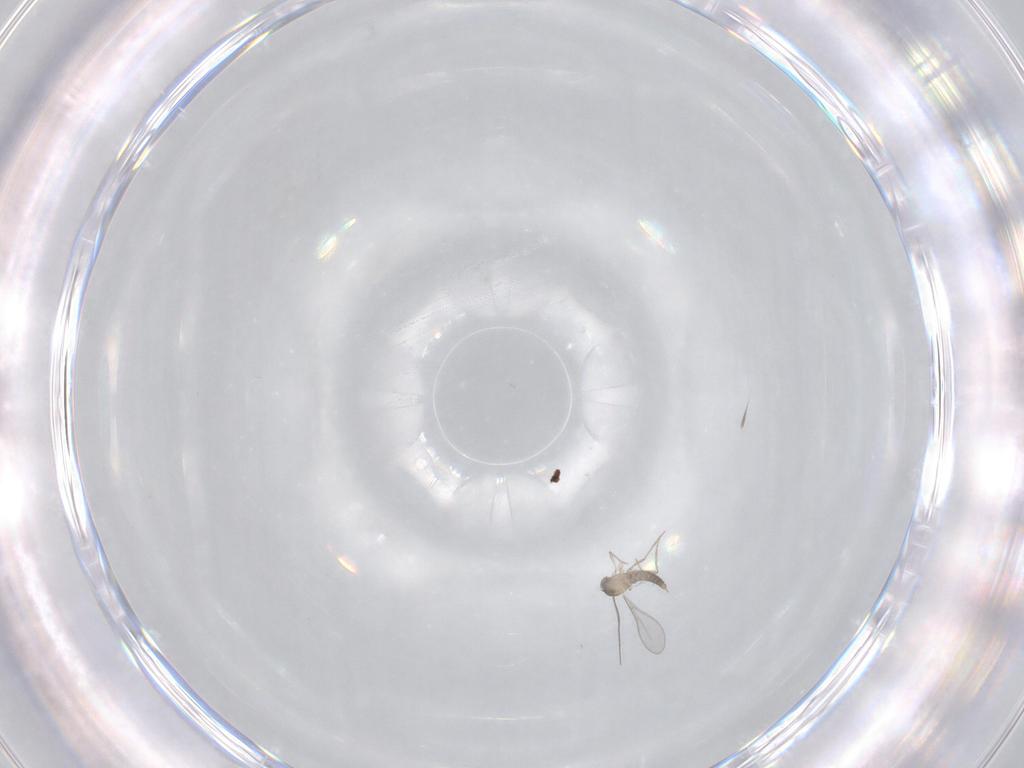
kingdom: Animalia
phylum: Arthropoda
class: Insecta
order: Diptera
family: Cecidomyiidae
